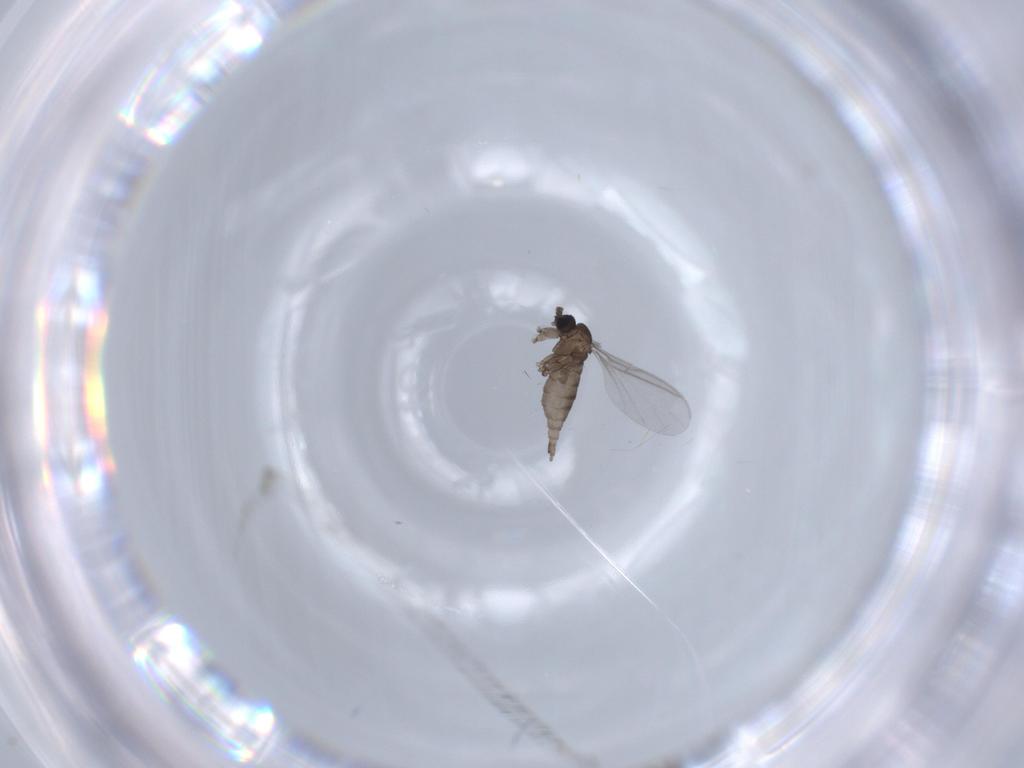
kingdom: Animalia
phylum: Arthropoda
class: Insecta
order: Diptera
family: Sciaridae
